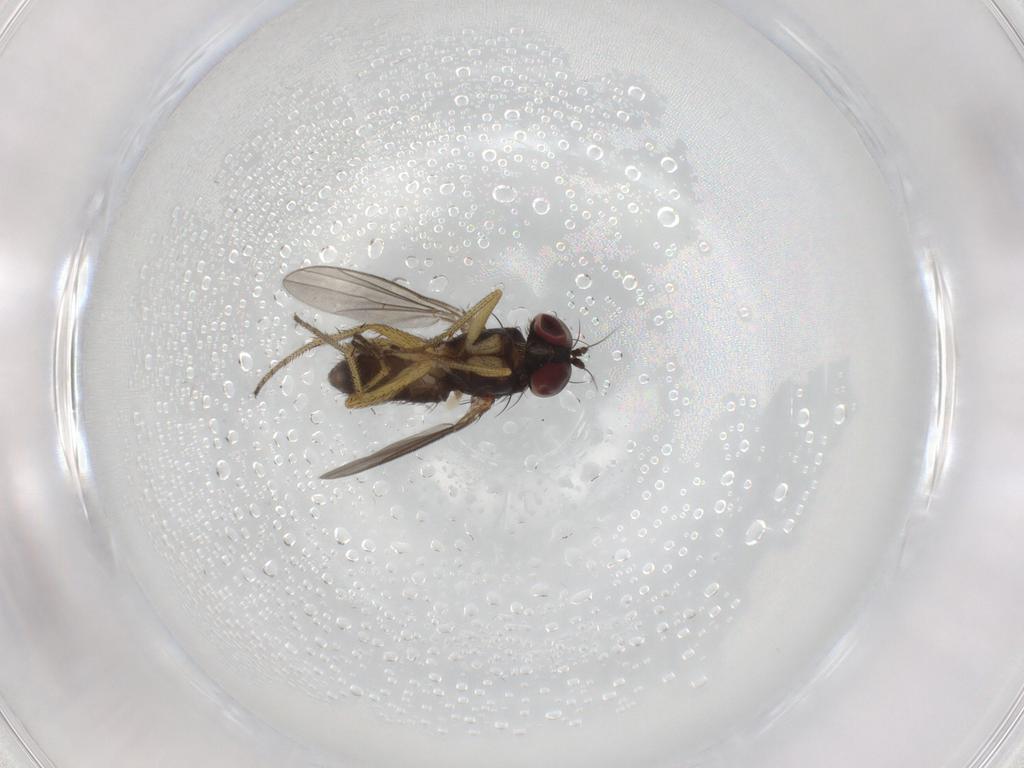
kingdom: Animalia
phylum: Arthropoda
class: Insecta
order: Diptera
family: Dolichopodidae
